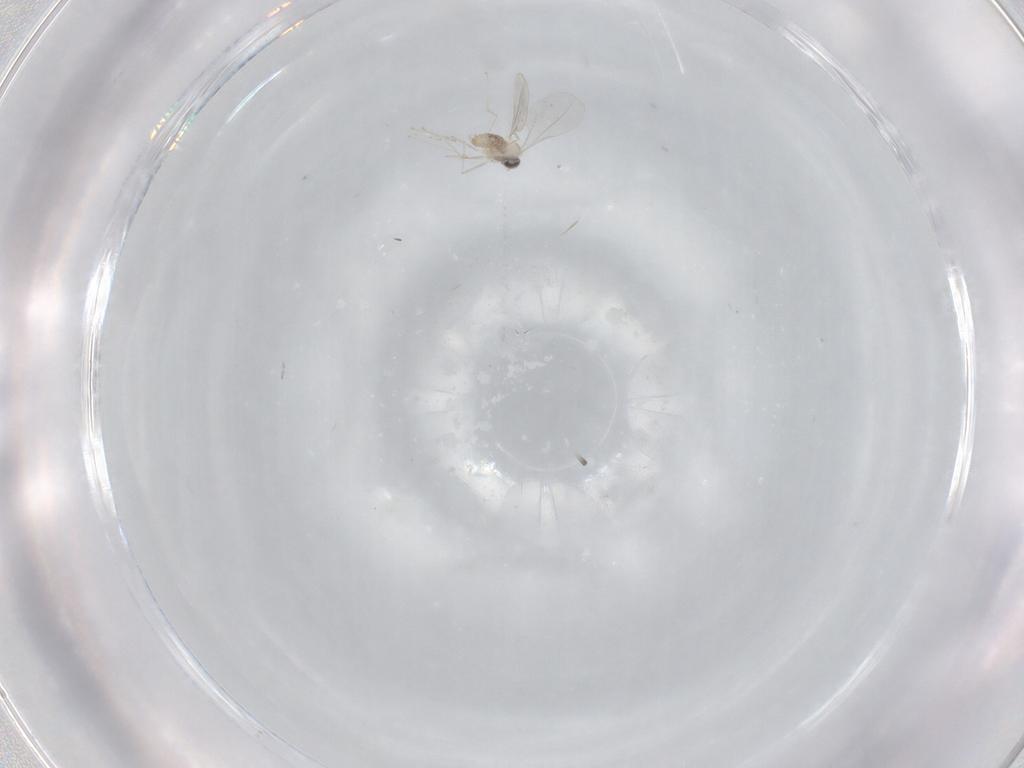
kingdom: Animalia
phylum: Arthropoda
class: Insecta
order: Diptera
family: Cecidomyiidae
